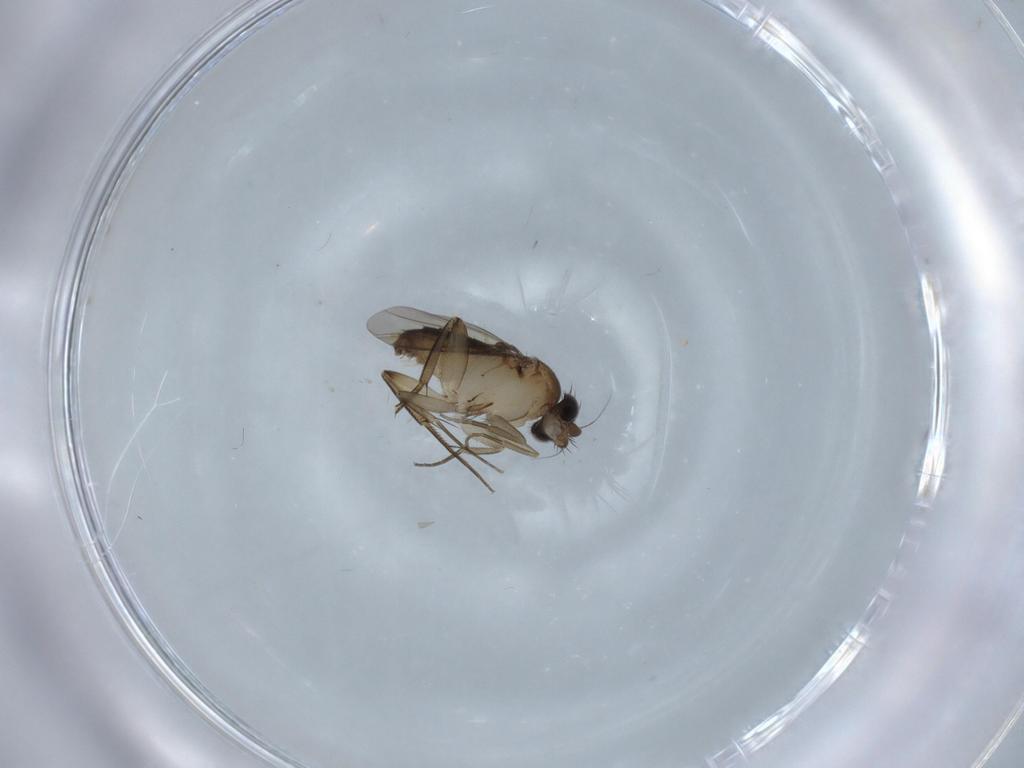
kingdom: Animalia
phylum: Arthropoda
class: Insecta
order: Diptera
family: Phoridae
